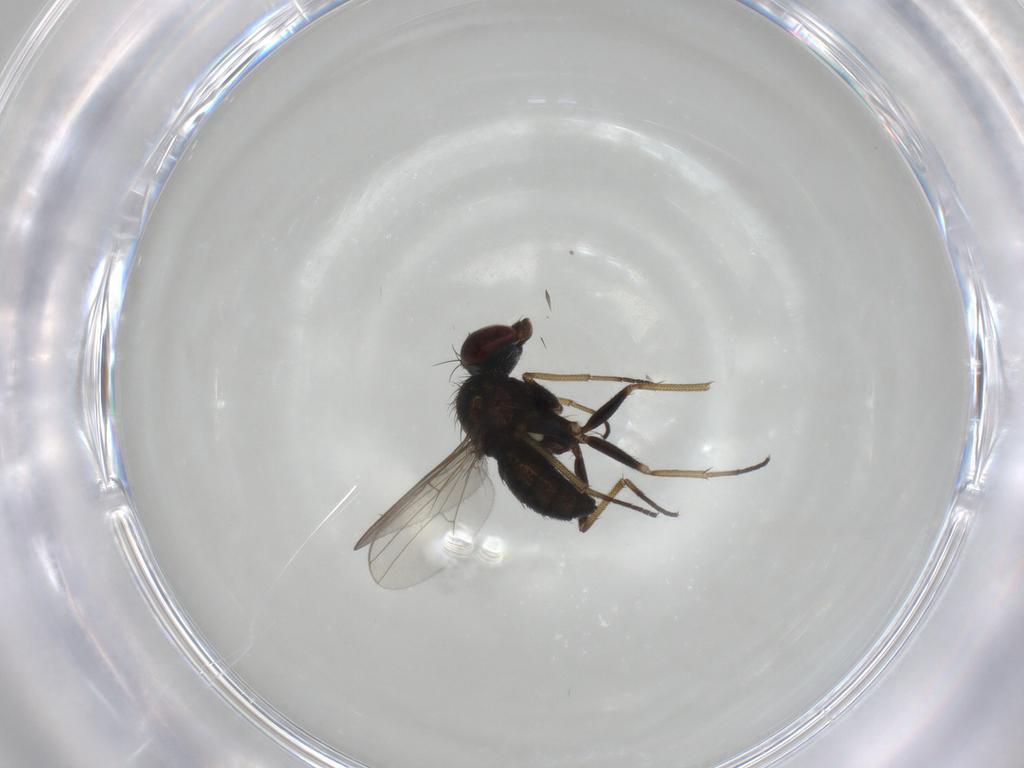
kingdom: Animalia
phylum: Arthropoda
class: Insecta
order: Diptera
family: Dolichopodidae
